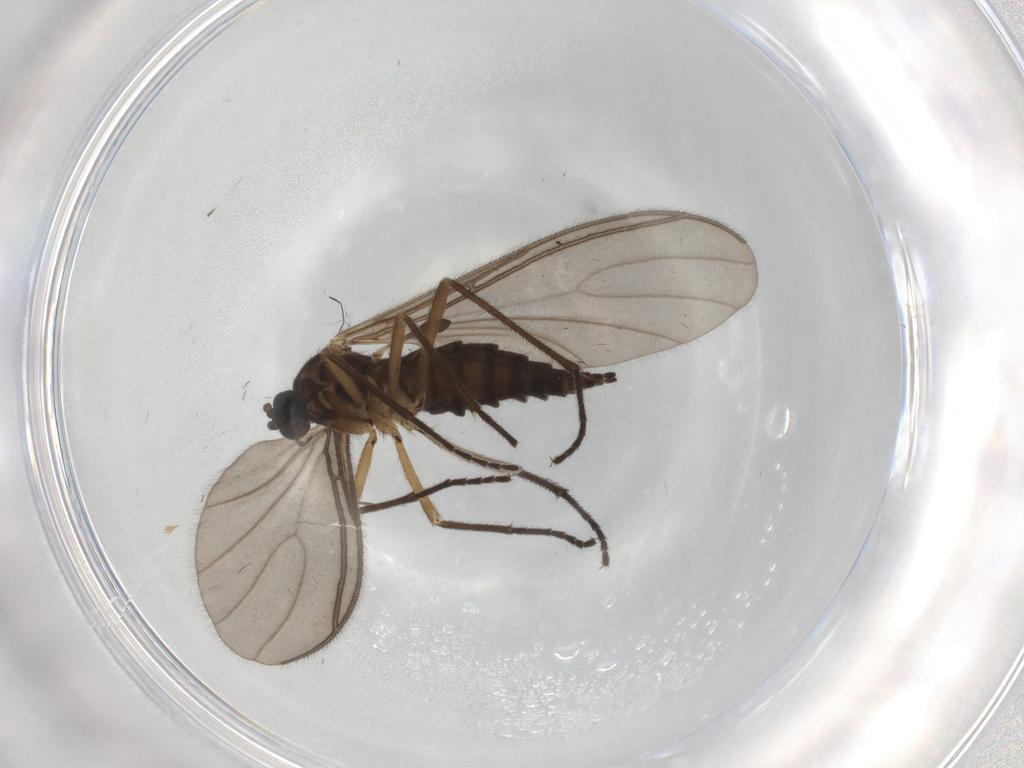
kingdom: Animalia
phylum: Arthropoda
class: Insecta
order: Diptera
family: Sciaridae
